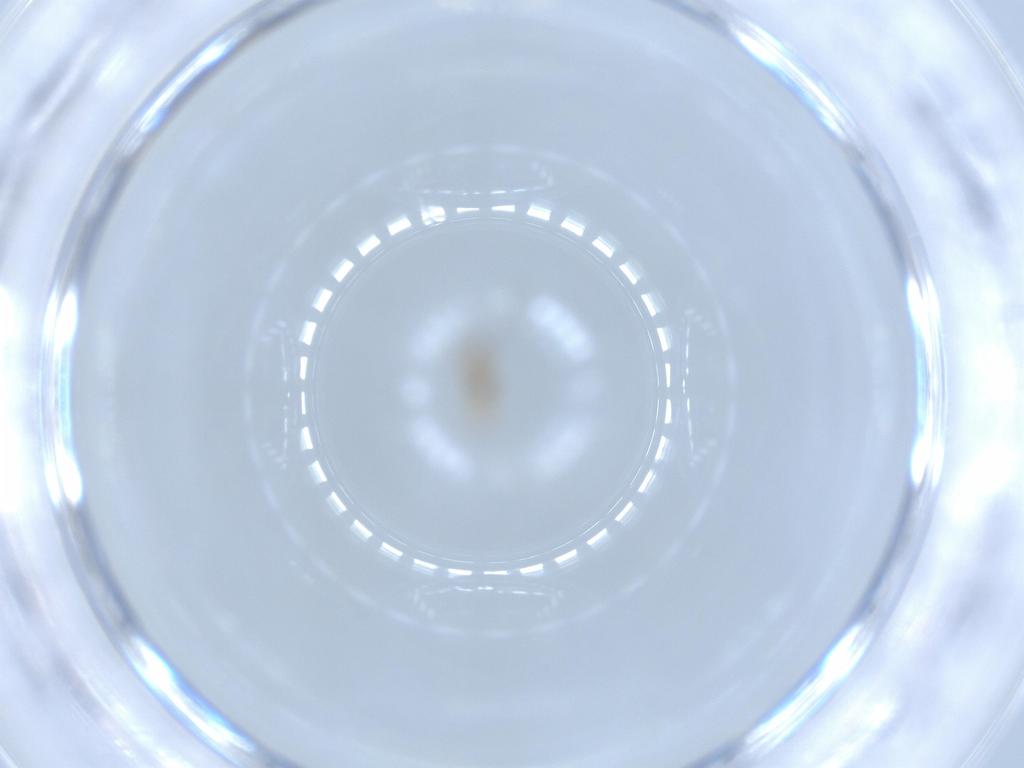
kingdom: Animalia
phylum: Arthropoda
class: Insecta
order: Diptera
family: Cecidomyiidae
